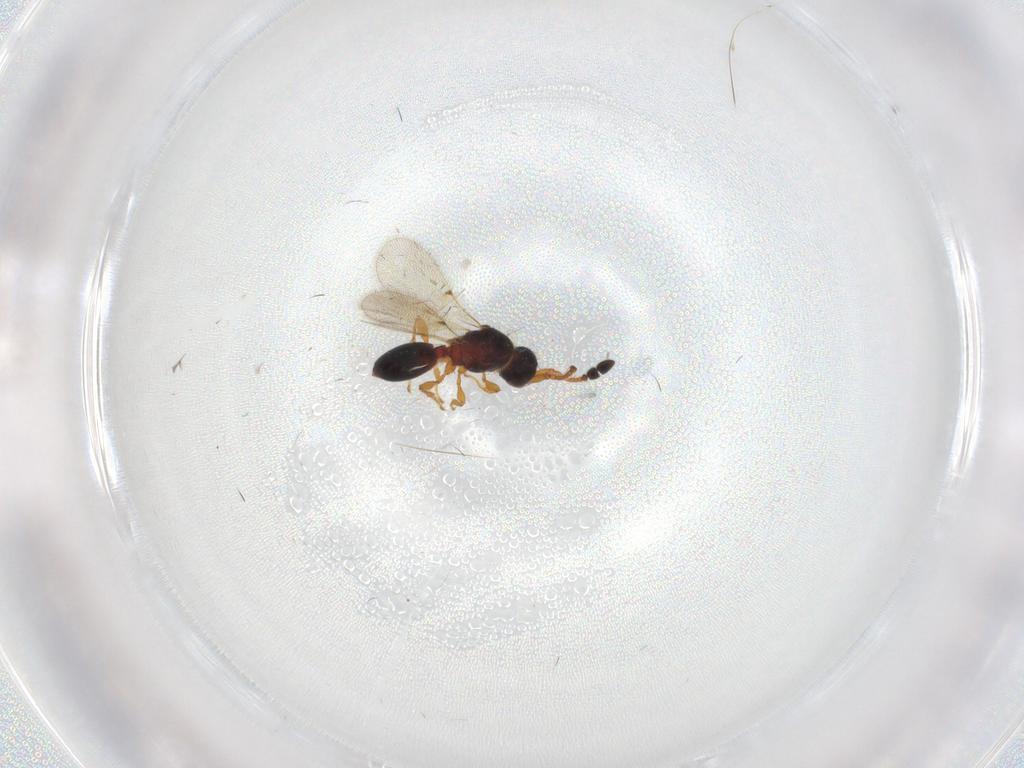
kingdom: Animalia
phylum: Arthropoda
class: Insecta
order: Hymenoptera
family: Diapriidae
